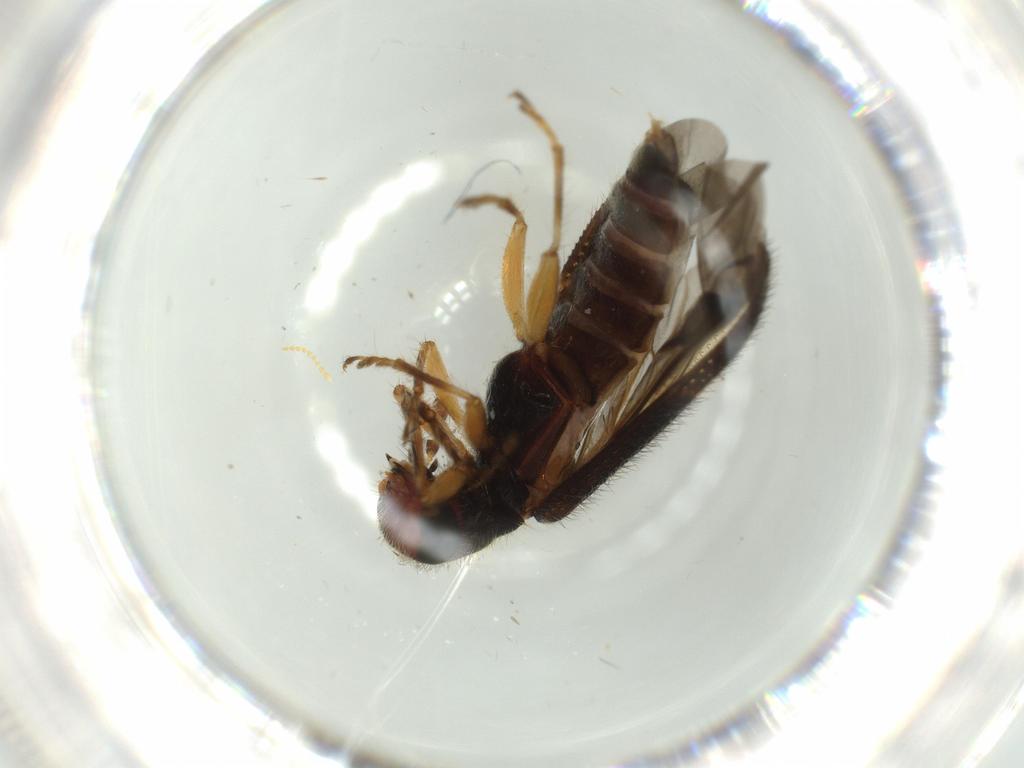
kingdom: Animalia
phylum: Arthropoda
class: Insecta
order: Coleoptera
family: Cleridae
